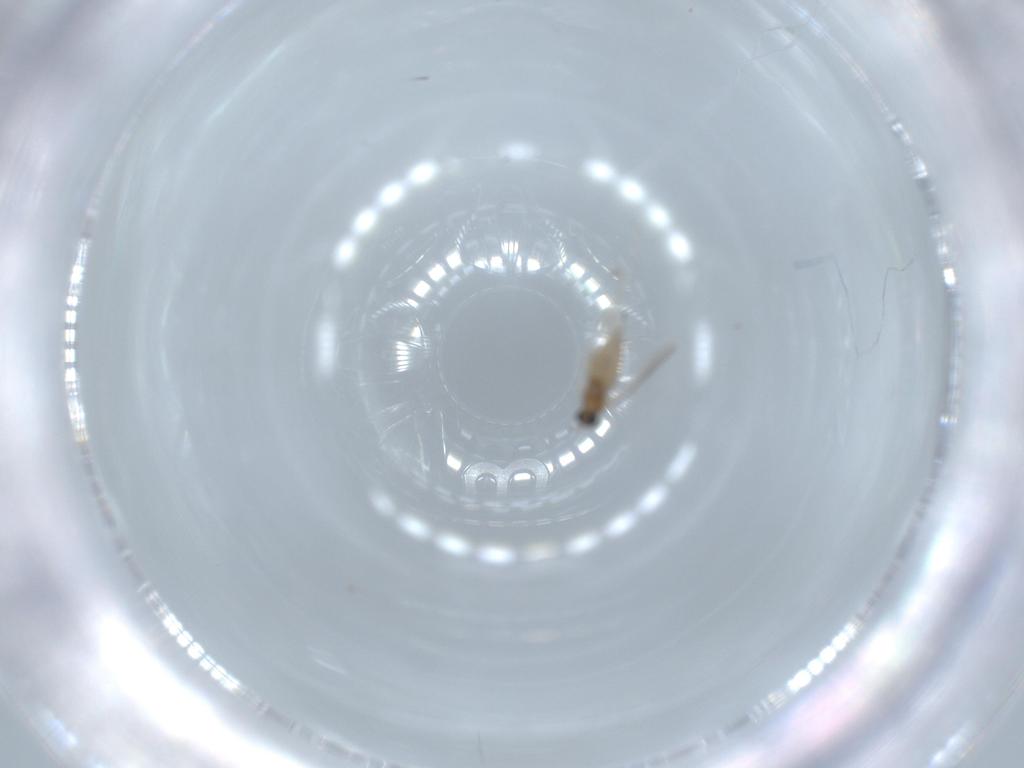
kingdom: Animalia
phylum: Arthropoda
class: Insecta
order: Diptera
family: Cecidomyiidae
